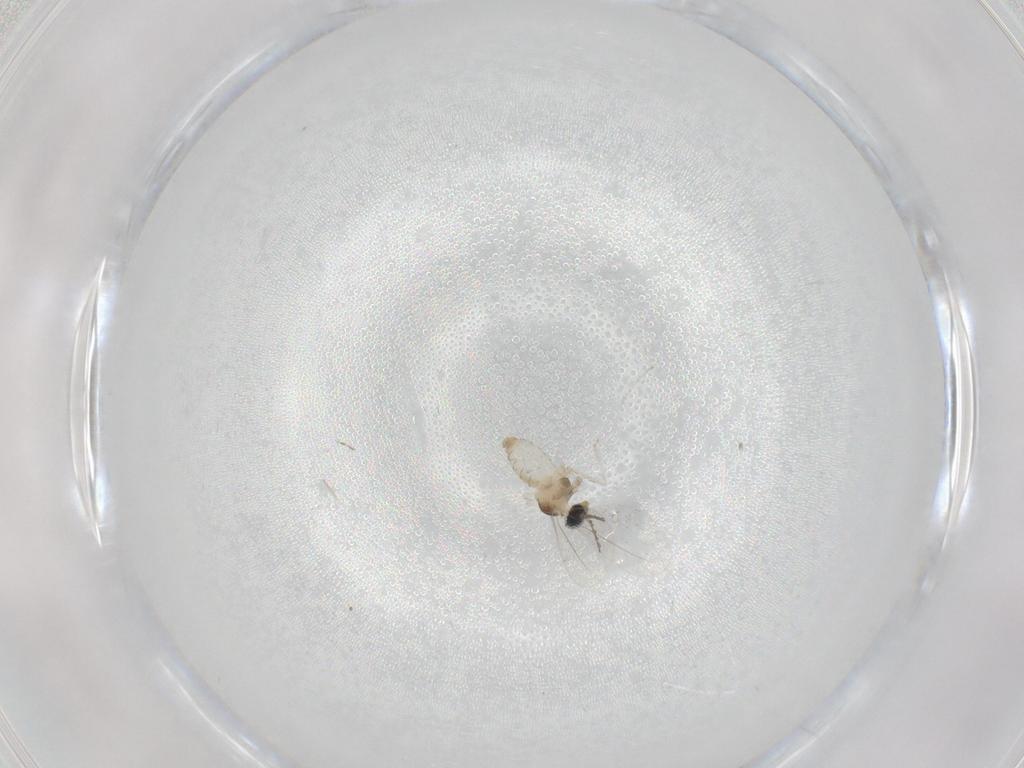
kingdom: Animalia
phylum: Arthropoda
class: Insecta
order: Diptera
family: Cecidomyiidae
